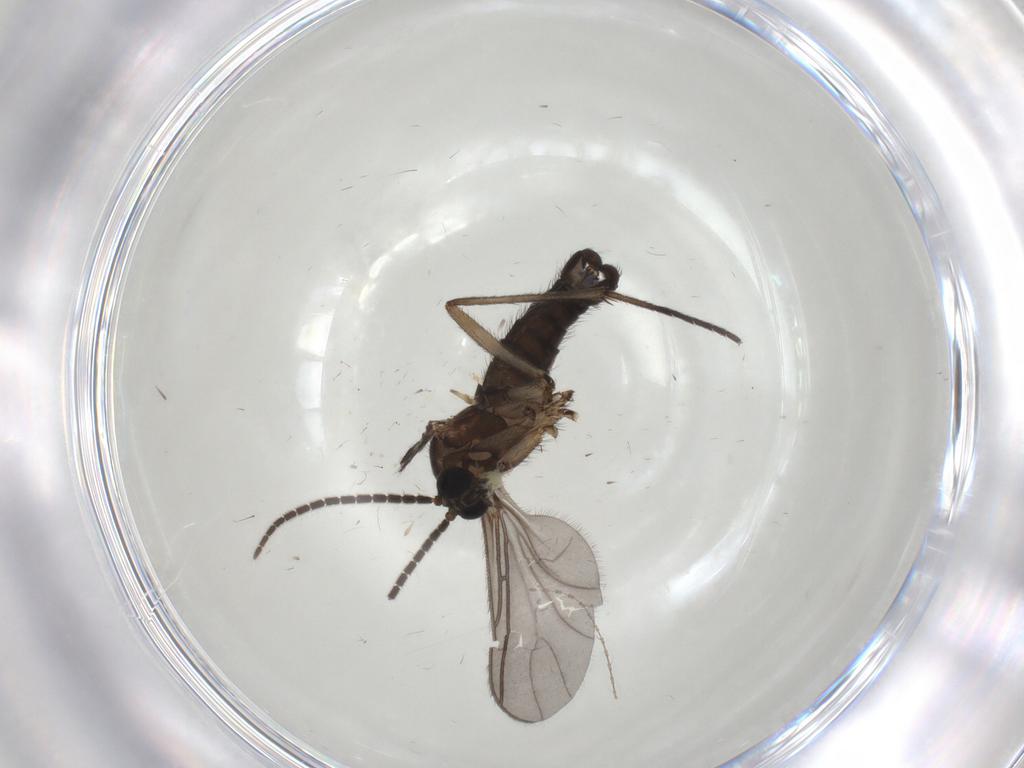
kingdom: Animalia
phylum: Arthropoda
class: Insecta
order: Diptera
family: Sciaridae
